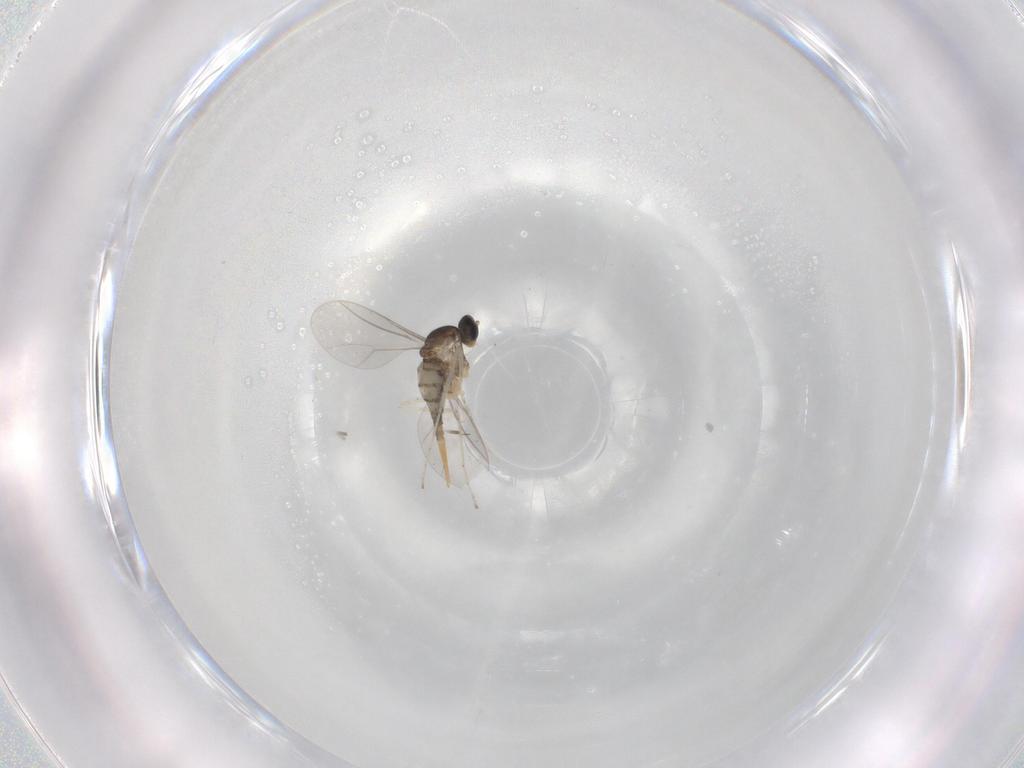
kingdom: Animalia
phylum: Arthropoda
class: Insecta
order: Diptera
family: Cecidomyiidae
